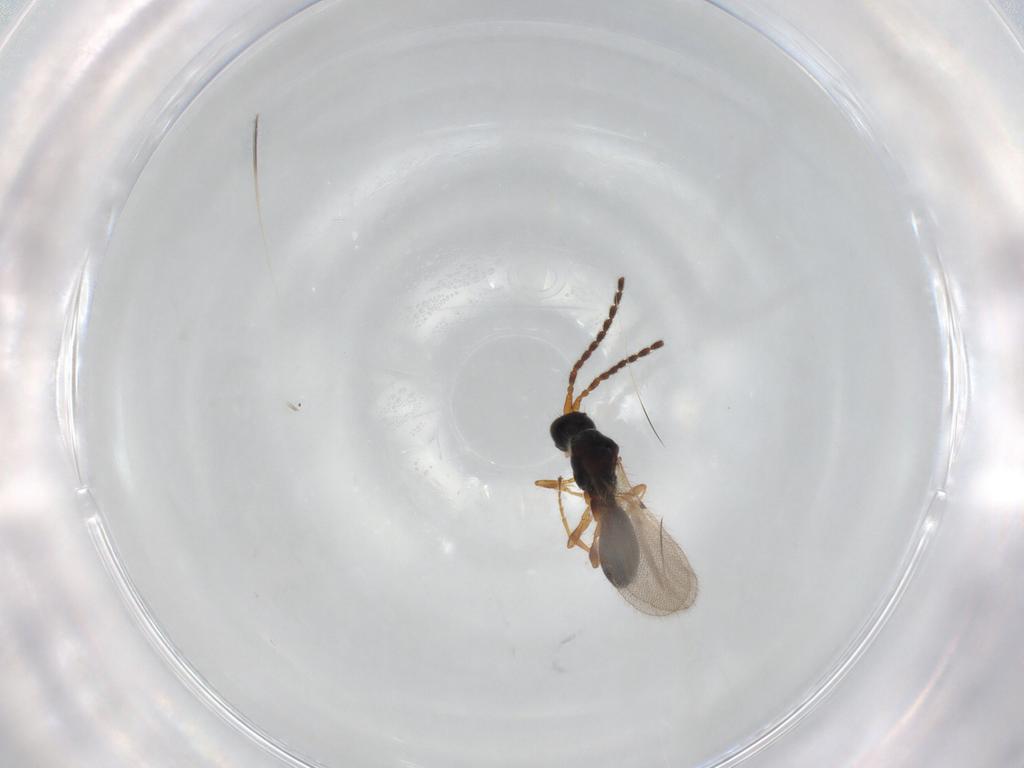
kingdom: Animalia
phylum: Arthropoda
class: Insecta
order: Hymenoptera
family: Diapriidae
